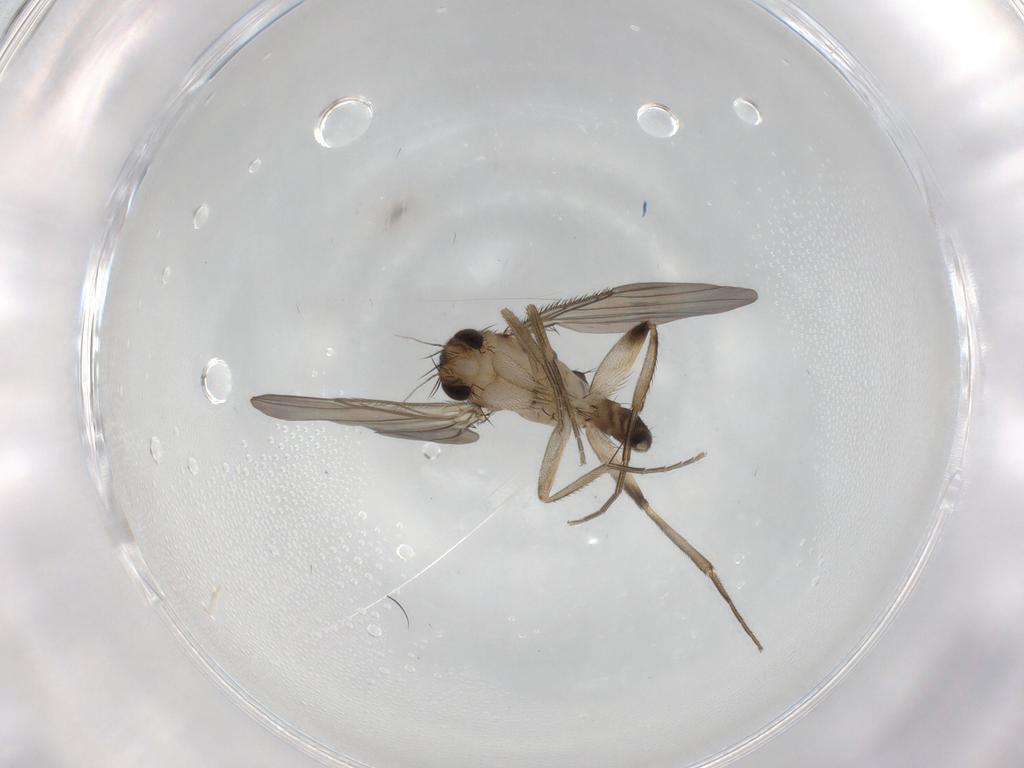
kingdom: Animalia
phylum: Arthropoda
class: Insecta
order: Diptera
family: Phoridae
